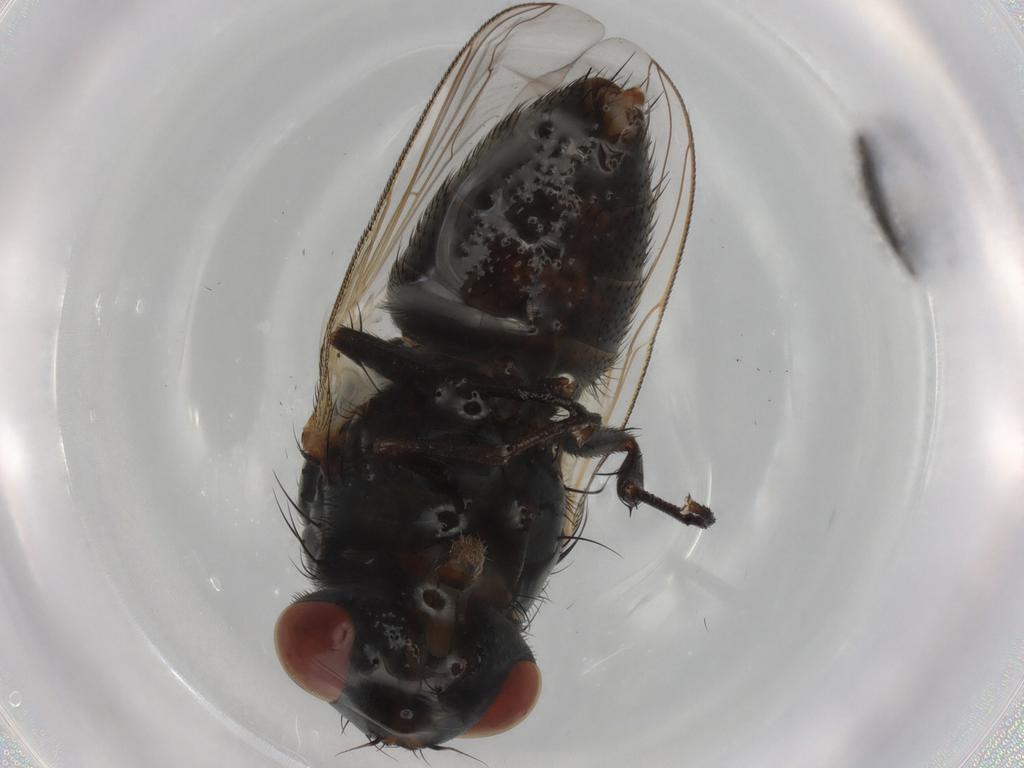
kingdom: Animalia
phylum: Arthropoda
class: Insecta
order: Diptera
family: Sarcophagidae
